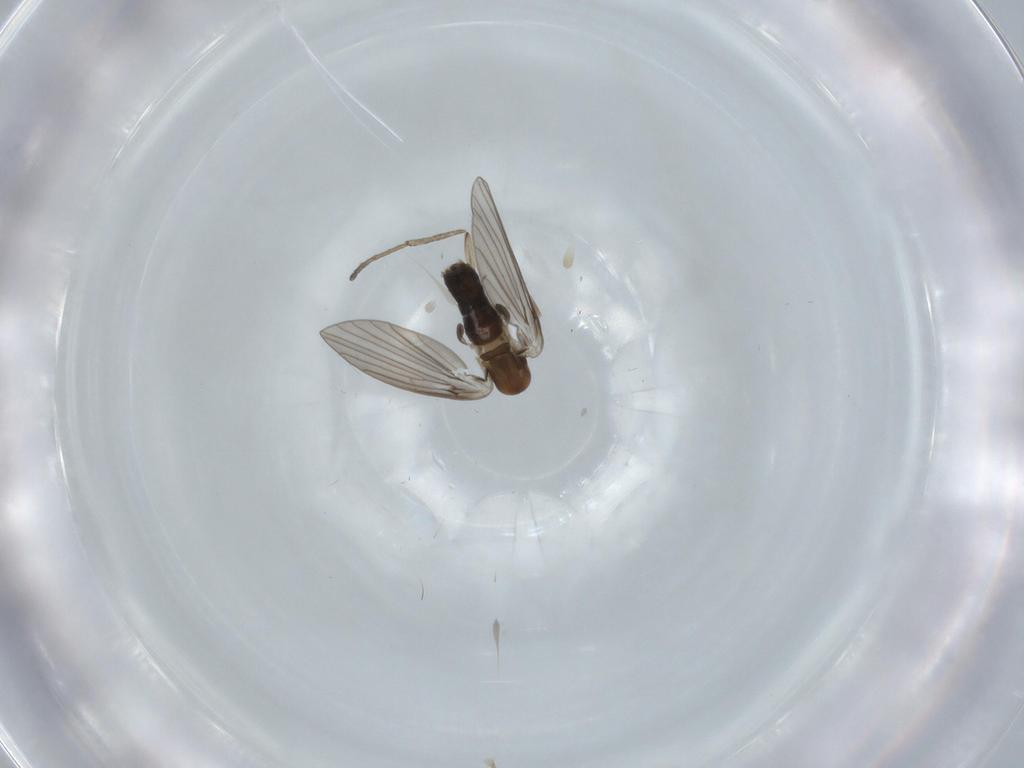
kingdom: Animalia
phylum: Arthropoda
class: Insecta
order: Diptera
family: Psychodidae
